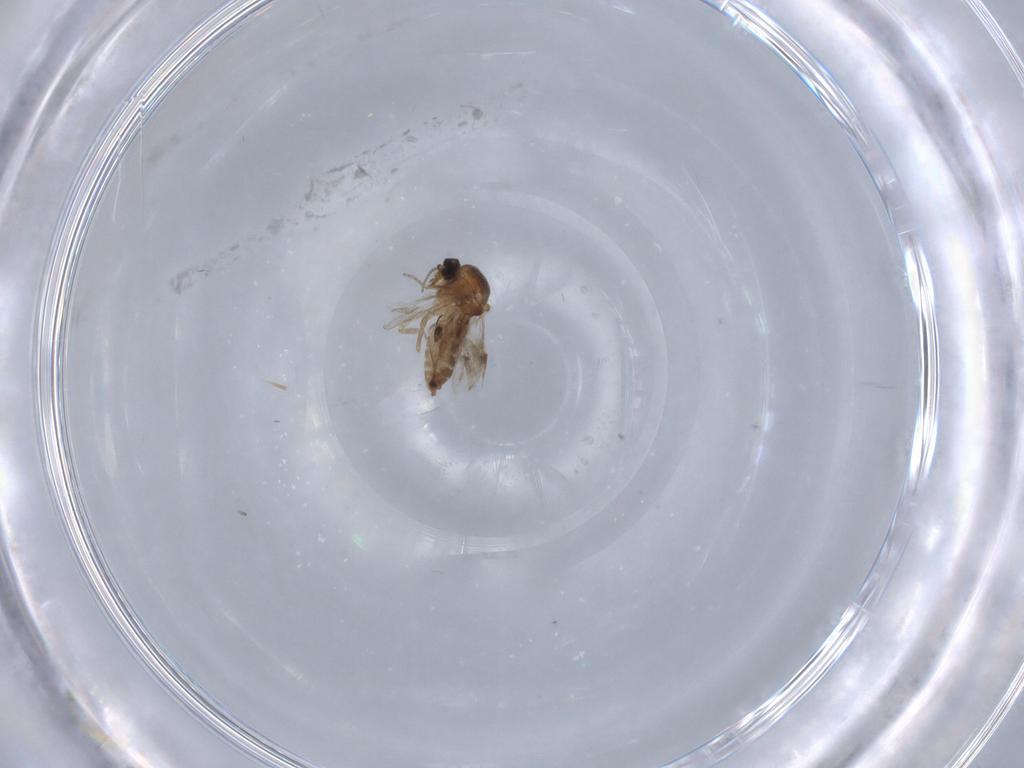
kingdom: Animalia
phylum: Arthropoda
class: Insecta
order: Diptera
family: Ceratopogonidae
